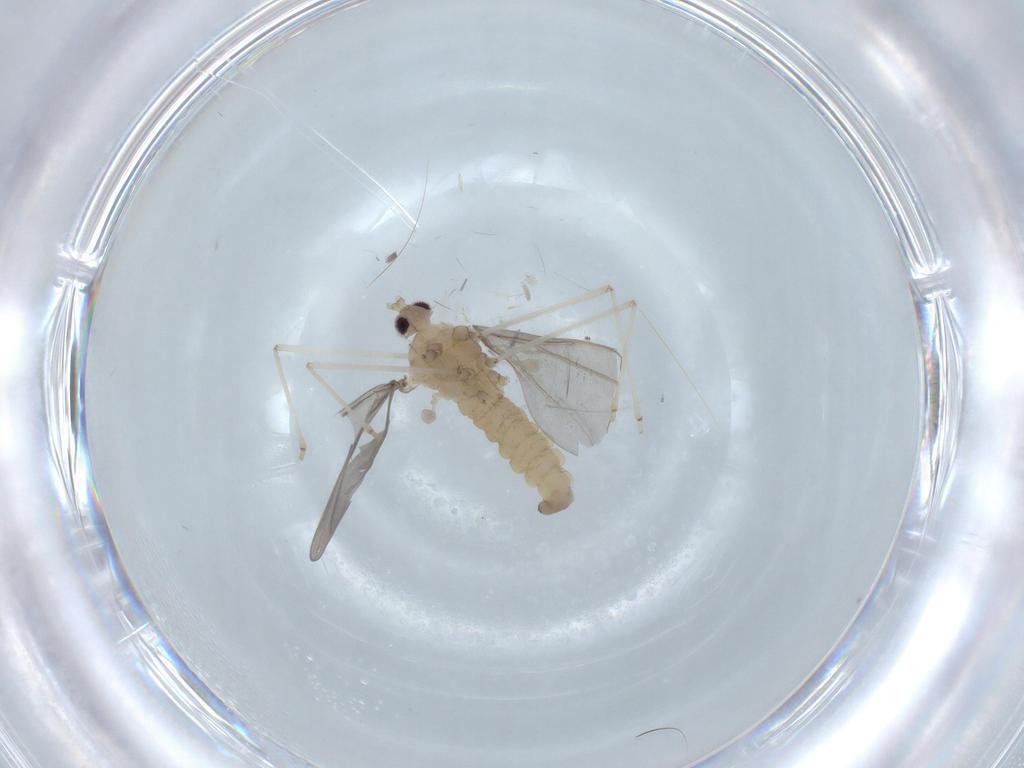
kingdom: Animalia
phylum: Arthropoda
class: Insecta
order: Diptera
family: Cecidomyiidae
